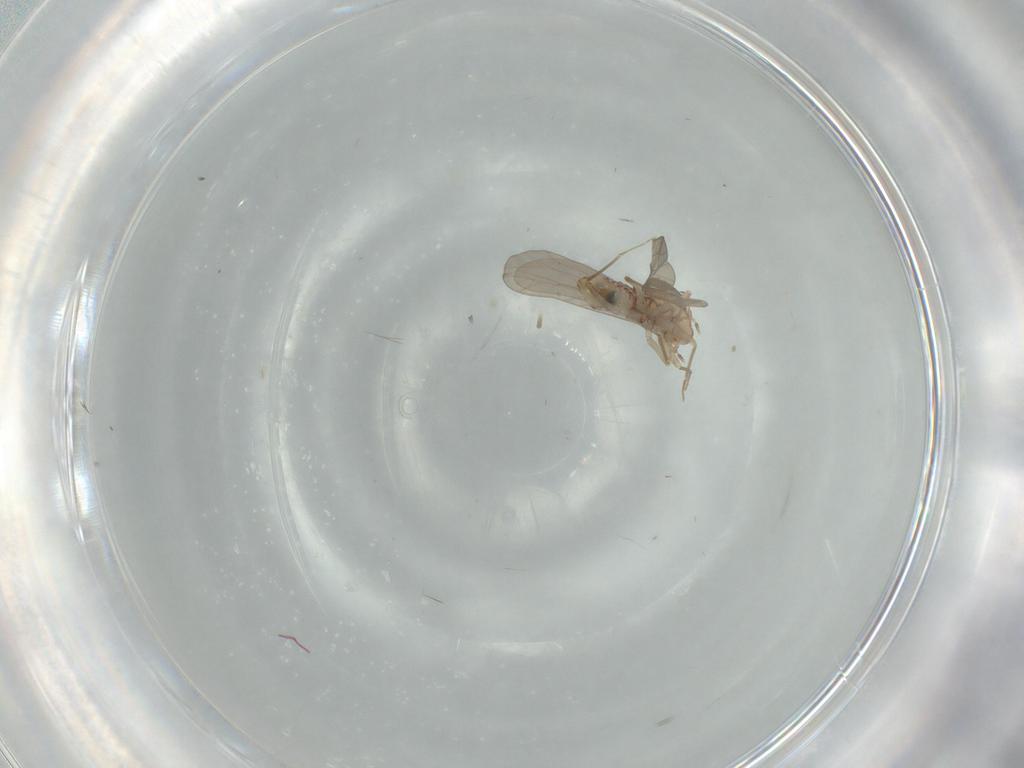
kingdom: Animalia
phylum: Arthropoda
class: Insecta
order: Psocodea
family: Lepidopsocidae
